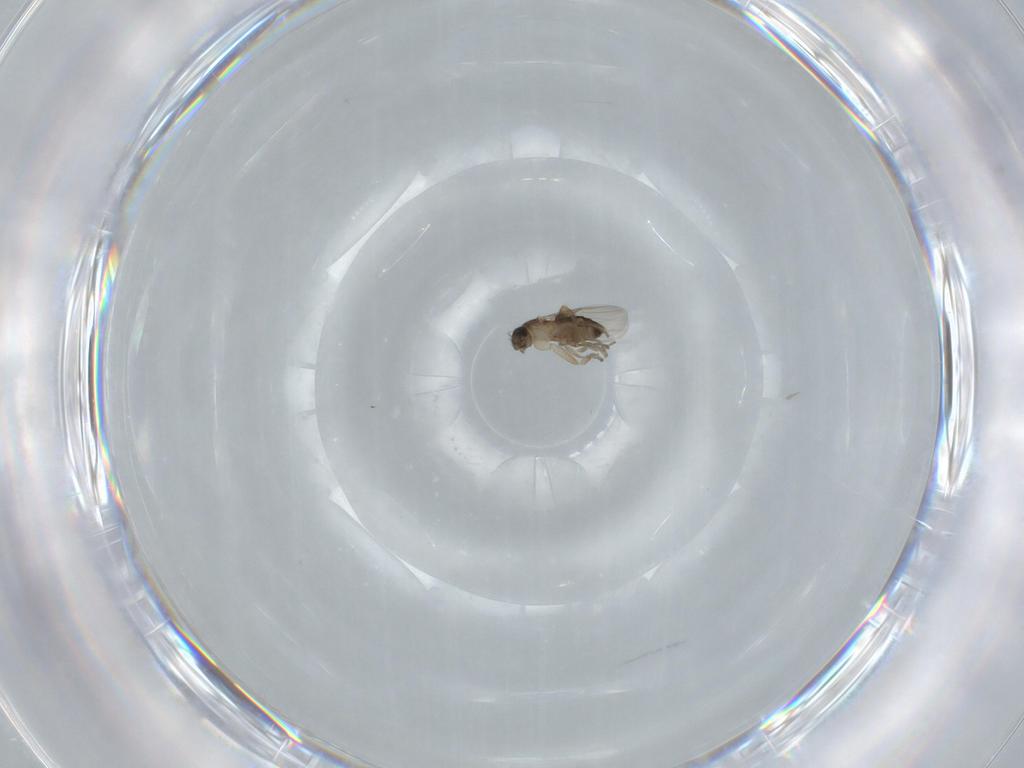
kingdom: Animalia
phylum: Arthropoda
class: Insecta
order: Diptera
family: Phoridae
